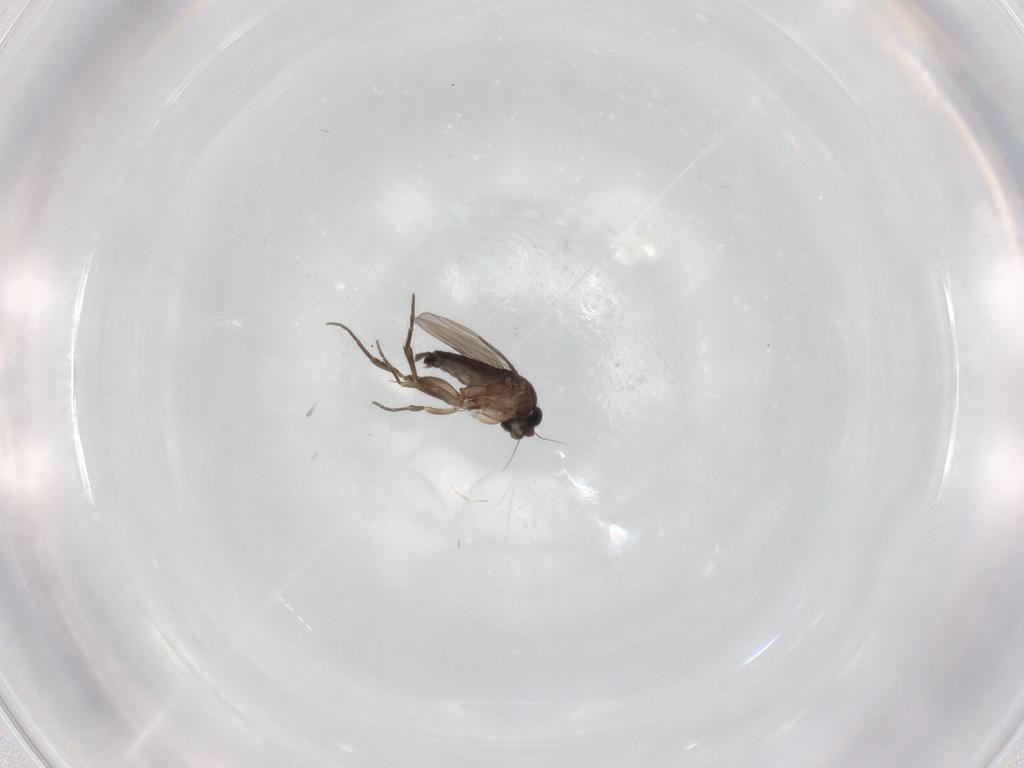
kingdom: Animalia
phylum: Arthropoda
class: Insecta
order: Diptera
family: Phoridae
